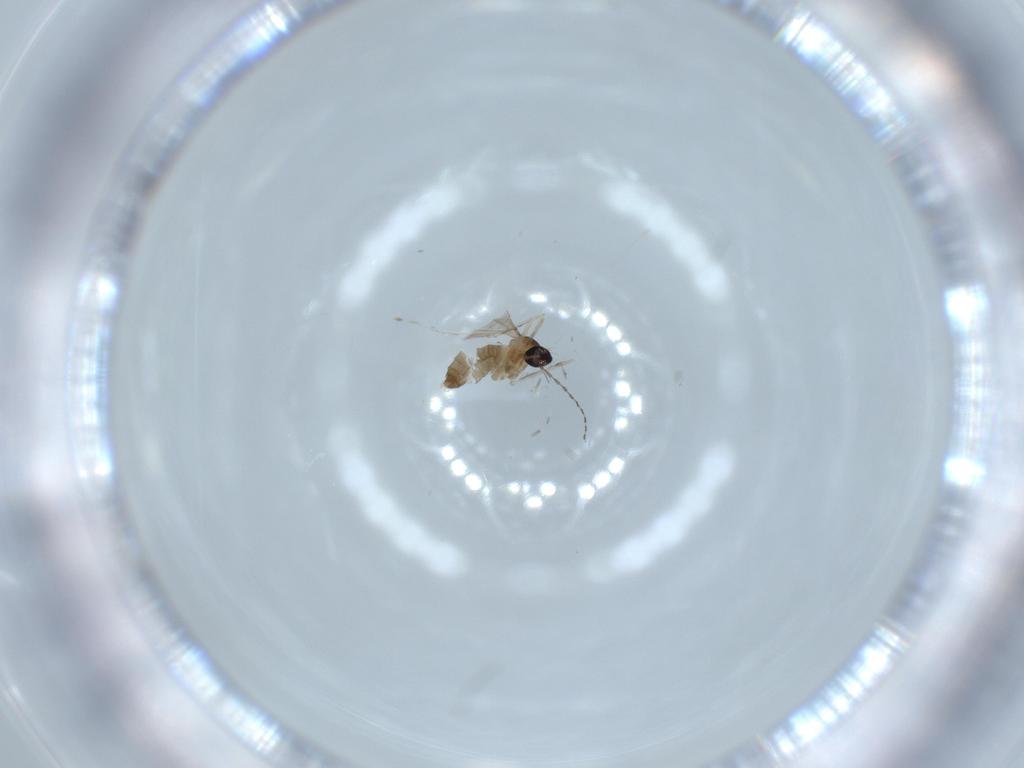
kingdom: Animalia
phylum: Arthropoda
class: Insecta
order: Diptera
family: Cecidomyiidae
